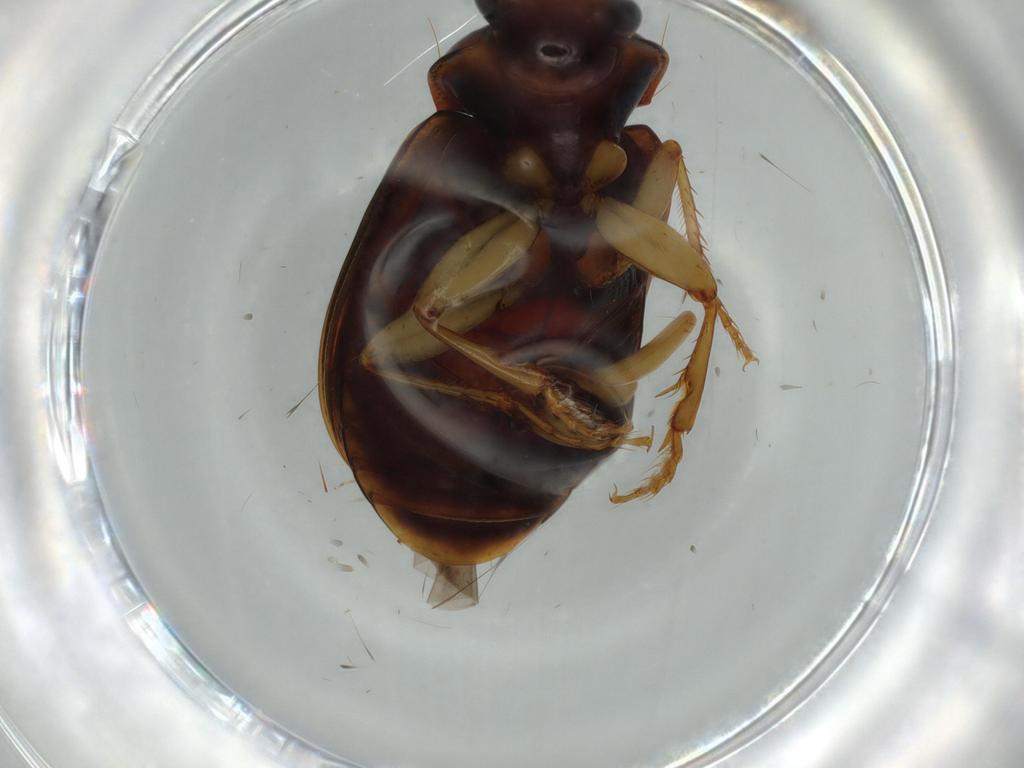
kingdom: Animalia
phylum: Arthropoda
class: Insecta
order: Coleoptera
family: Carabidae
